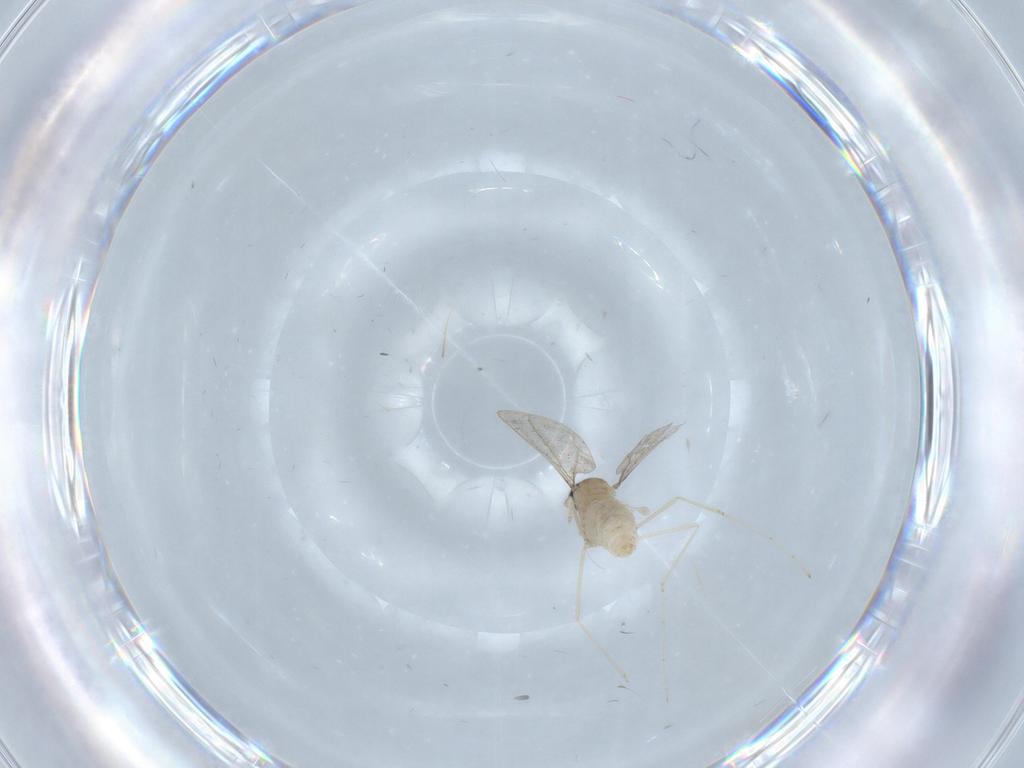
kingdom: Animalia
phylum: Arthropoda
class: Insecta
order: Diptera
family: Cecidomyiidae
